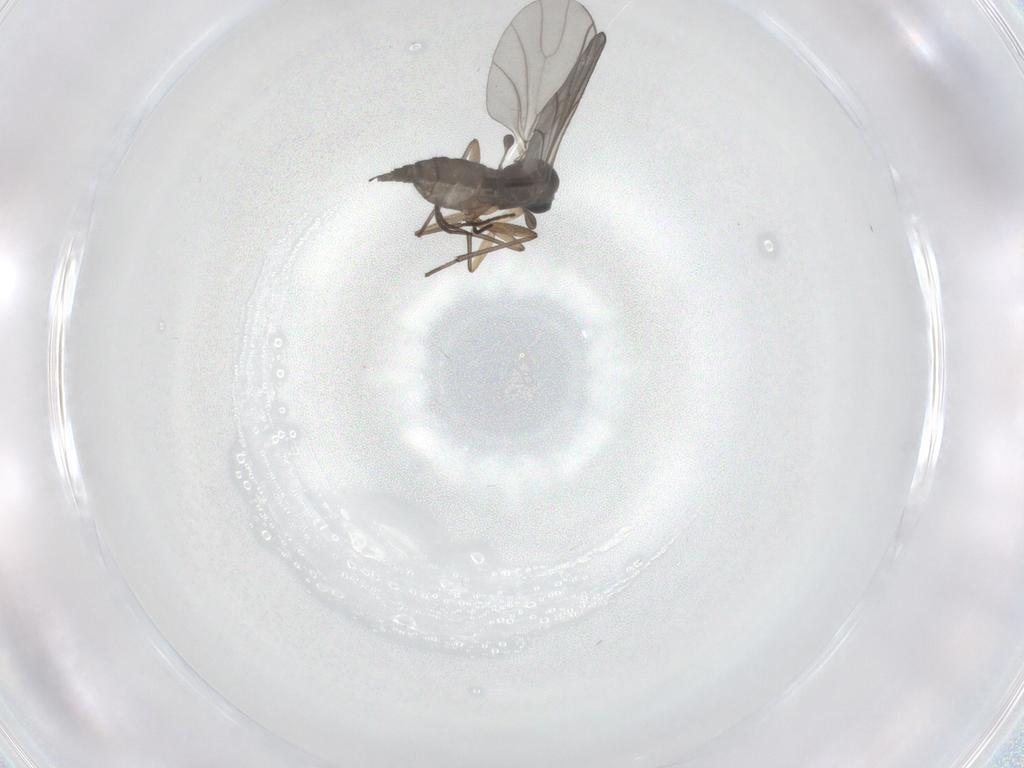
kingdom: Animalia
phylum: Arthropoda
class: Insecta
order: Diptera
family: Sciaridae
